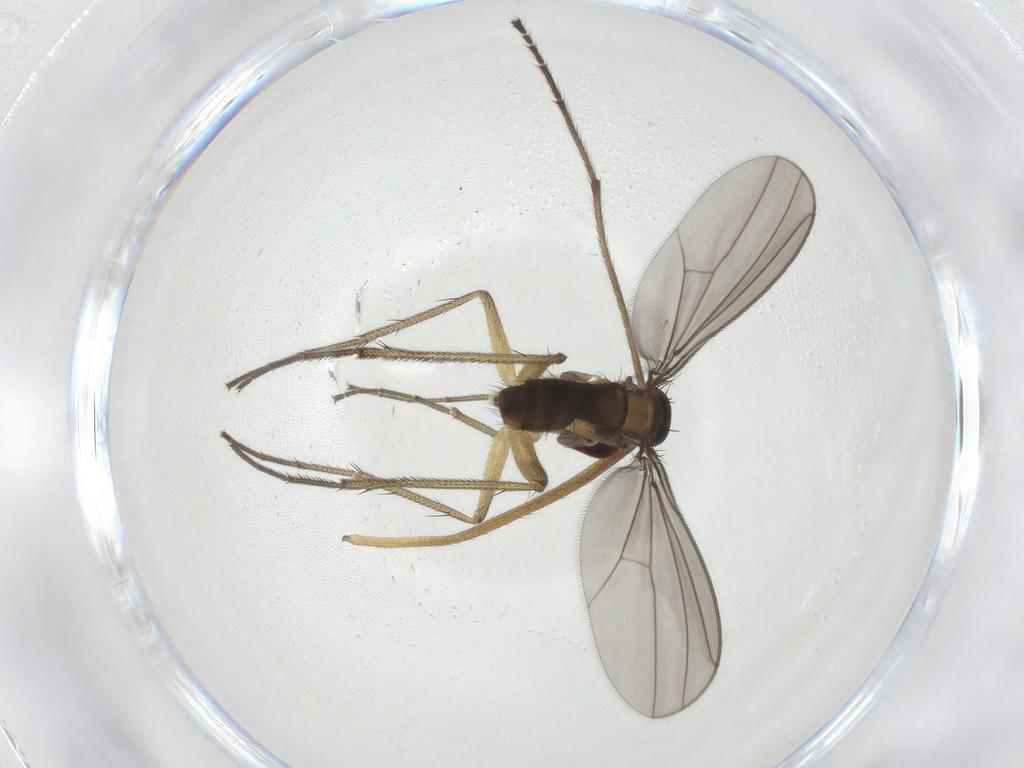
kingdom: Animalia
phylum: Arthropoda
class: Insecta
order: Diptera
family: Dolichopodidae
